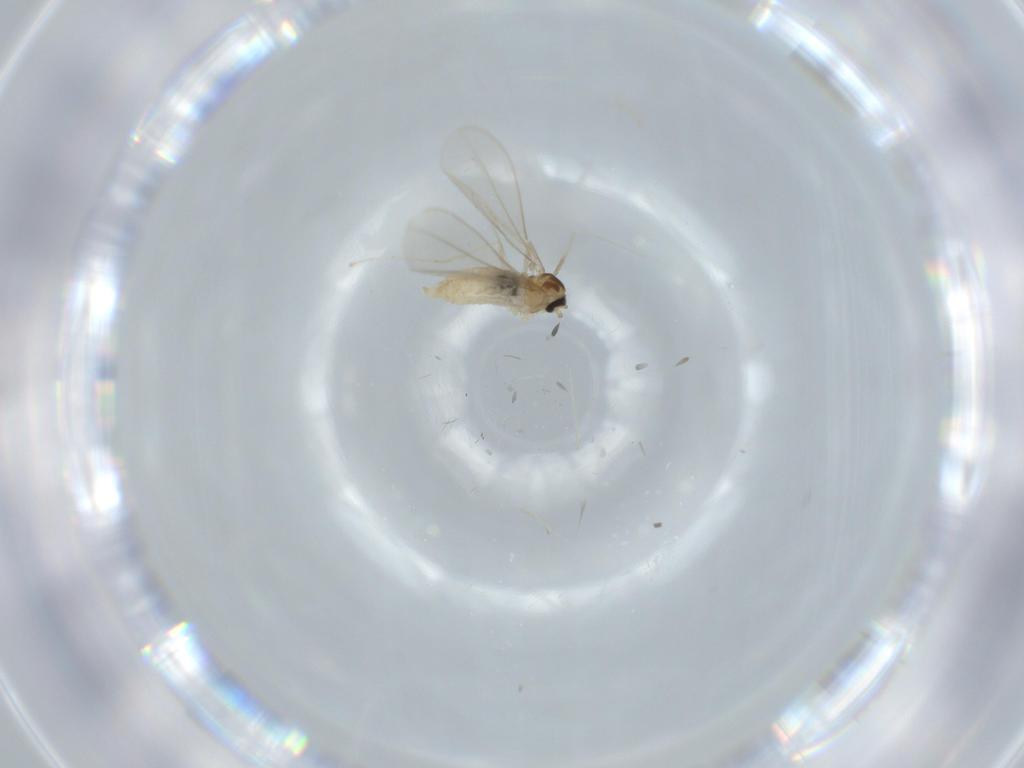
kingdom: Animalia
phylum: Arthropoda
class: Insecta
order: Diptera
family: Cecidomyiidae
